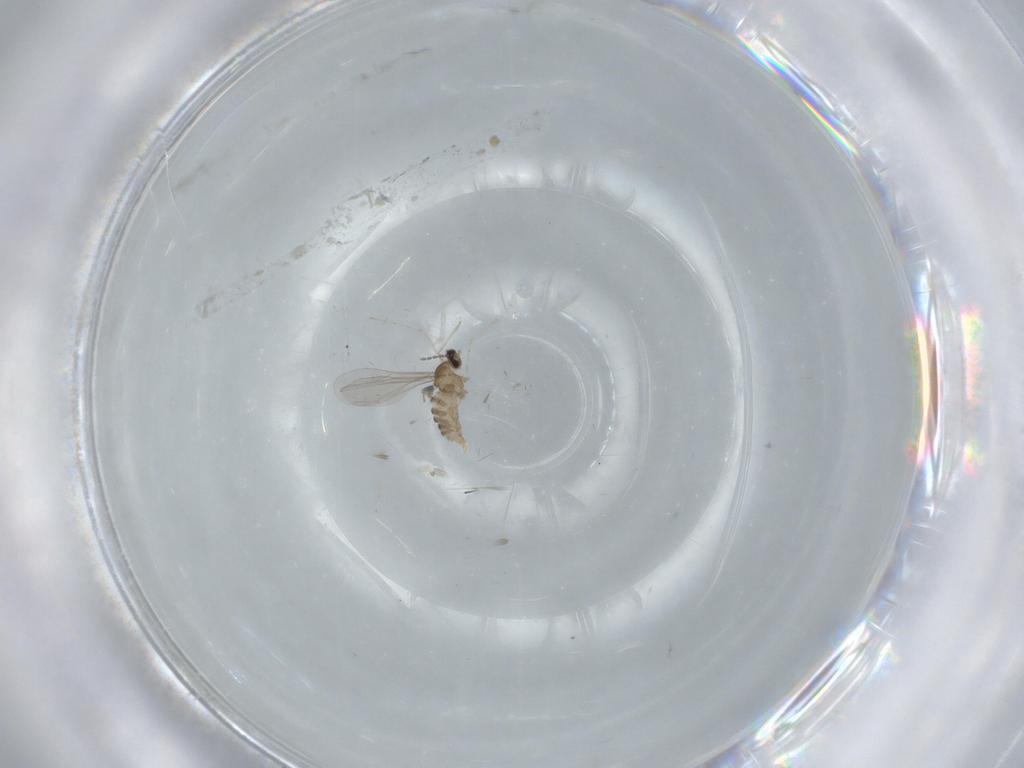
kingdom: Animalia
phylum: Arthropoda
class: Insecta
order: Diptera
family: Cecidomyiidae
